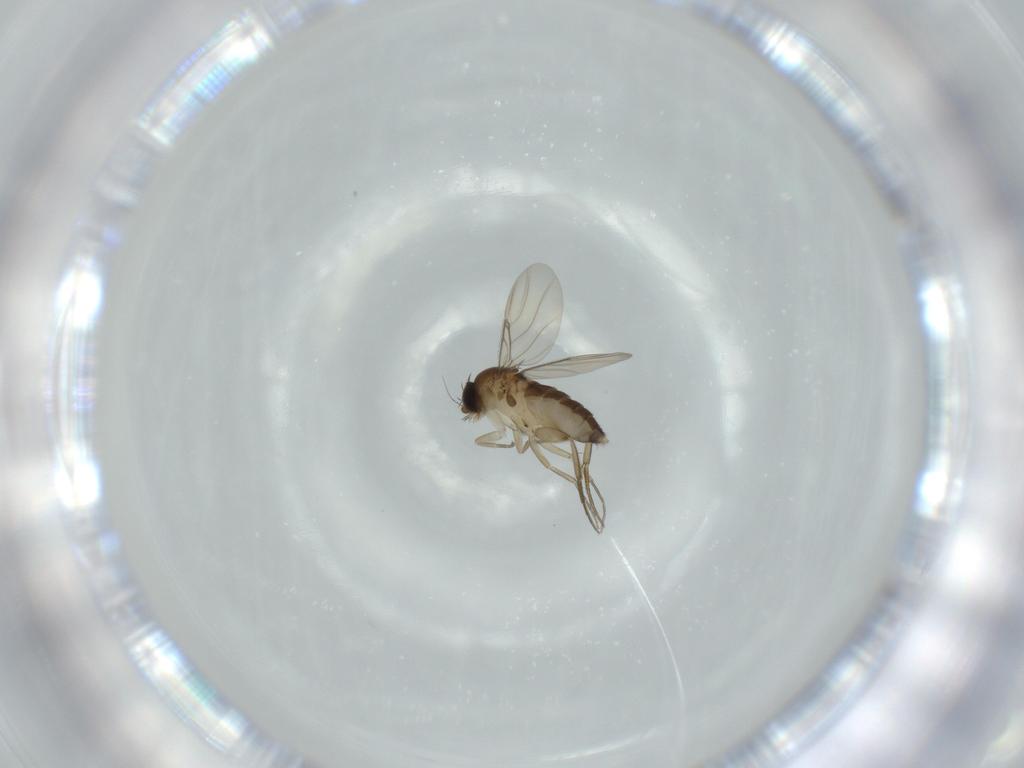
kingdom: Animalia
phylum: Arthropoda
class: Insecta
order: Diptera
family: Phoridae
